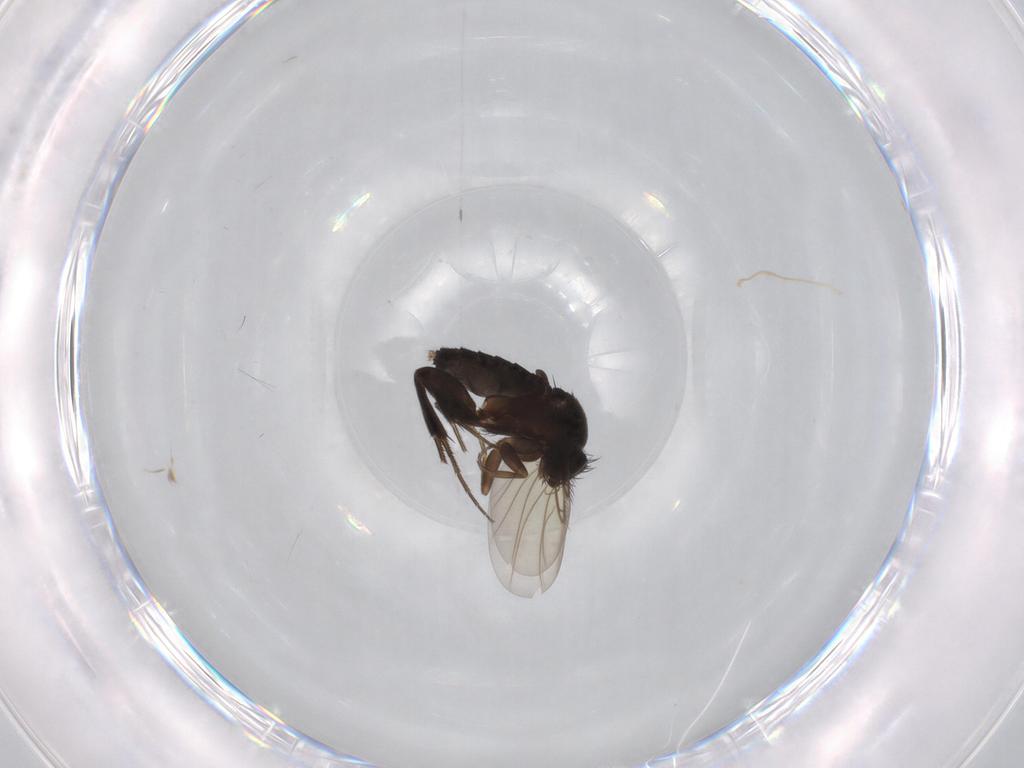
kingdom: Animalia
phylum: Arthropoda
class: Insecta
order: Diptera
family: Phoridae
